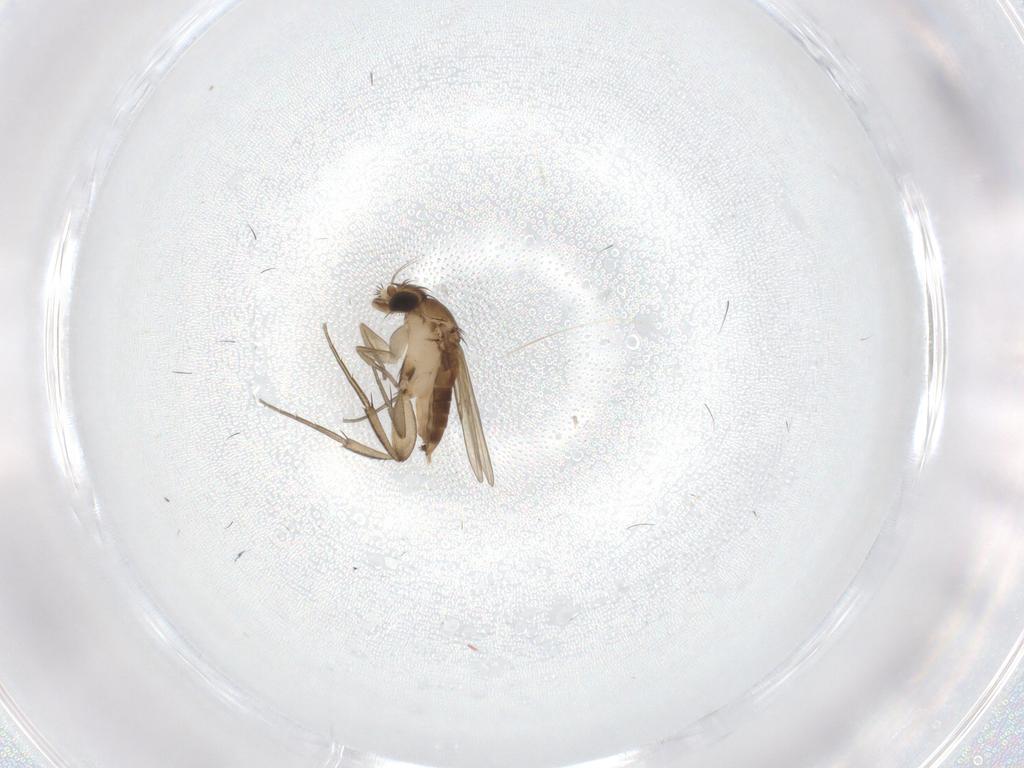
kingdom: Animalia
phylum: Arthropoda
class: Insecta
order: Diptera
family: Phoridae
